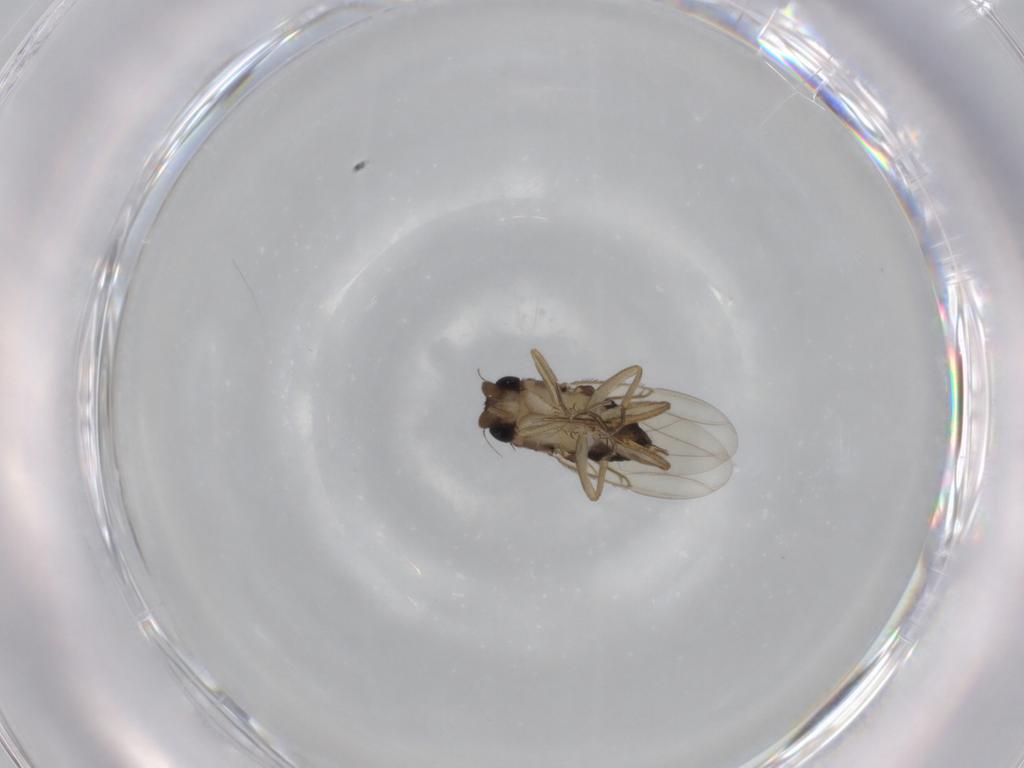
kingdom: Animalia
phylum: Arthropoda
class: Insecta
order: Diptera
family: Phoridae
